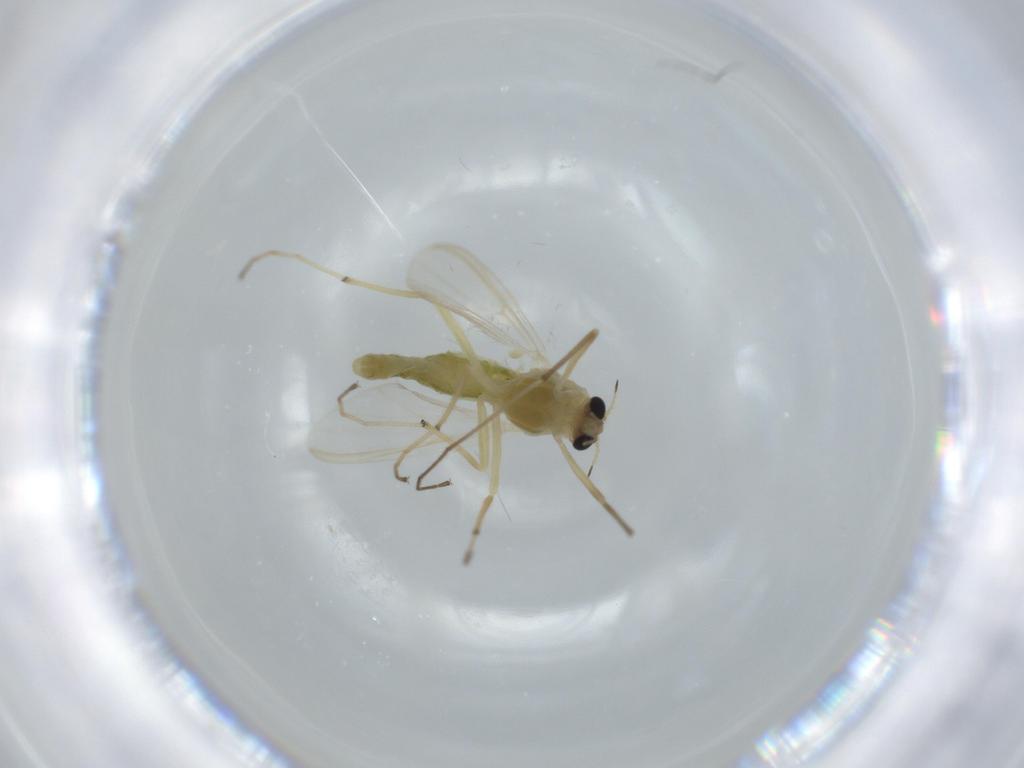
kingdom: Animalia
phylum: Arthropoda
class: Insecta
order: Diptera
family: Chironomidae
